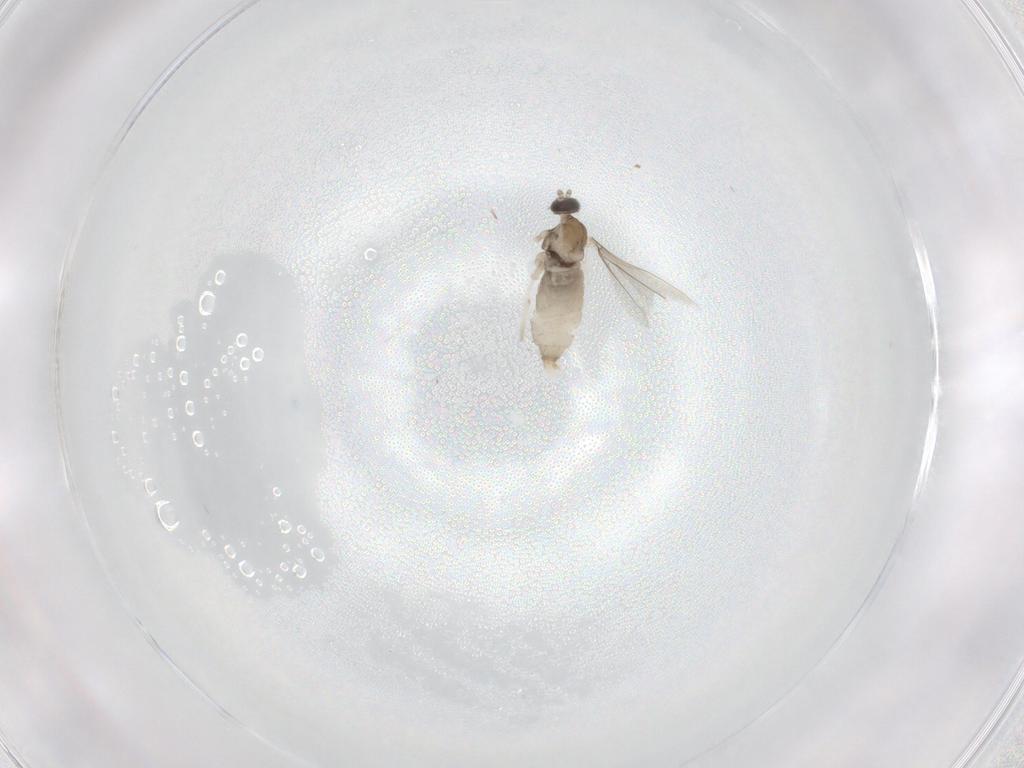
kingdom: Animalia
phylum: Arthropoda
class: Insecta
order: Diptera
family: Cecidomyiidae
